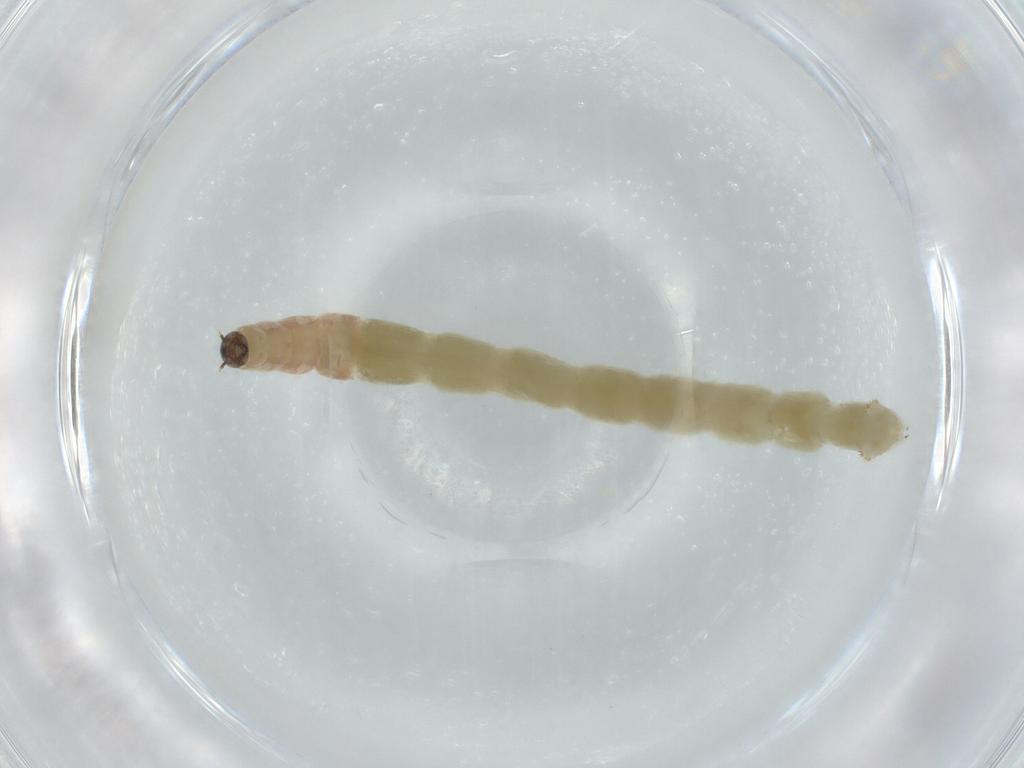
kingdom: Animalia
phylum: Arthropoda
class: Insecta
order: Diptera
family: Chironomidae
